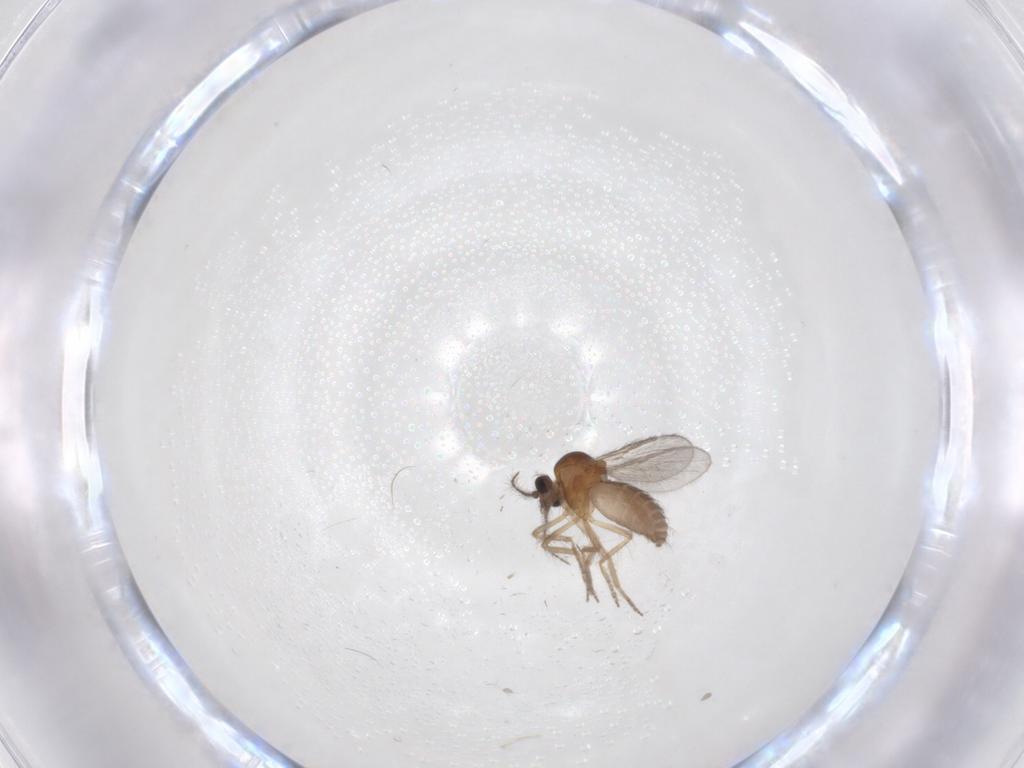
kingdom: Animalia
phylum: Arthropoda
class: Insecta
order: Diptera
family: Ceratopogonidae
